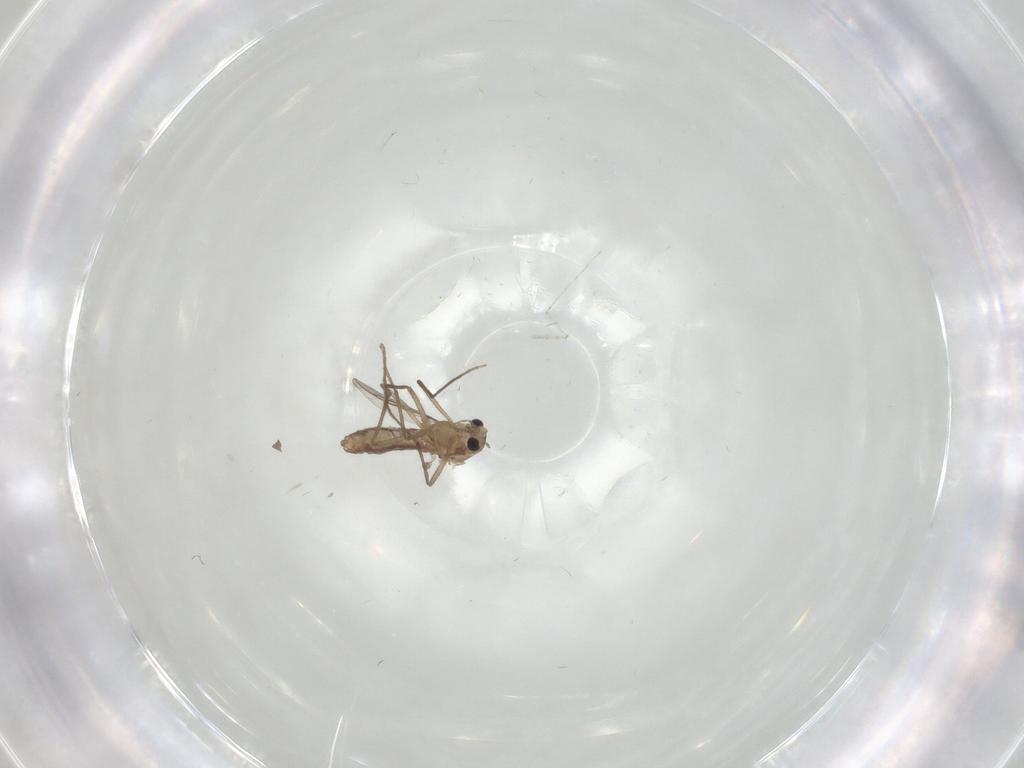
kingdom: Animalia
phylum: Arthropoda
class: Insecta
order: Diptera
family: Chironomidae
